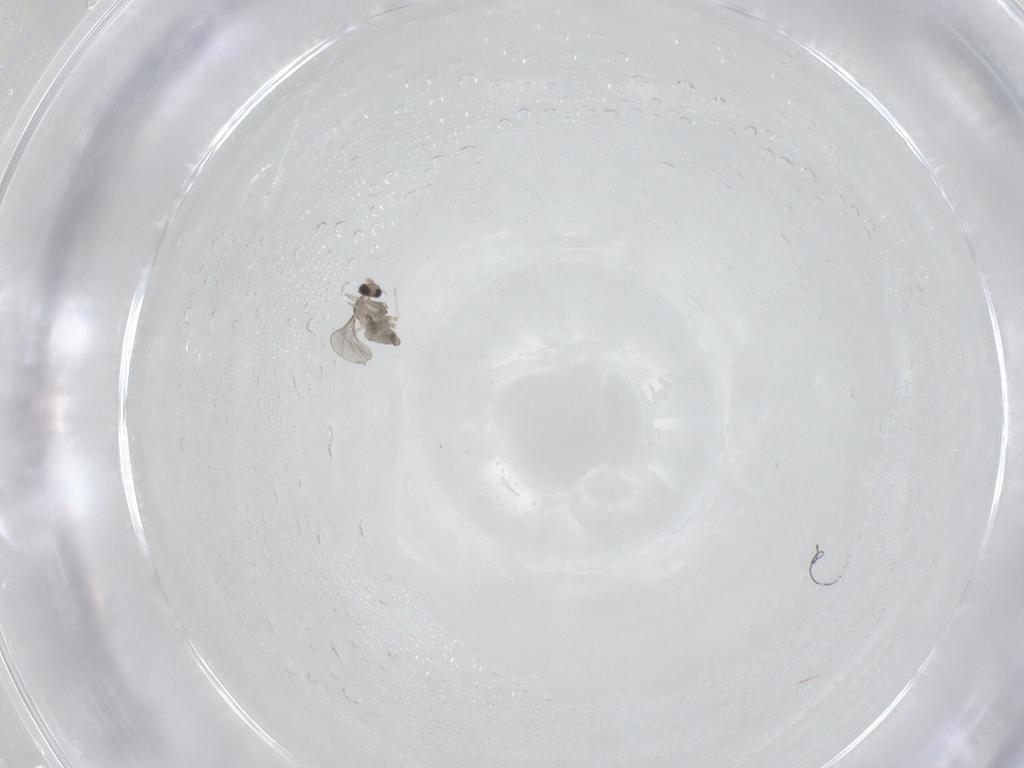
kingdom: Animalia
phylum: Arthropoda
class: Insecta
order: Diptera
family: Cecidomyiidae
